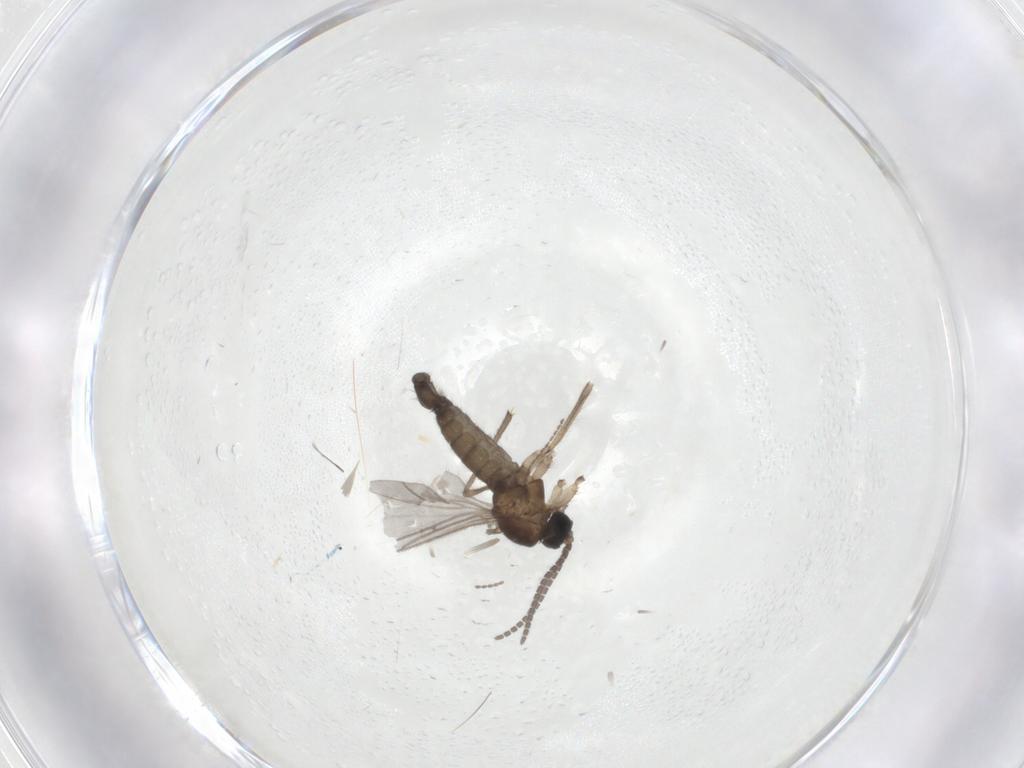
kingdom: Animalia
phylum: Arthropoda
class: Insecta
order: Diptera
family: Sciaridae
